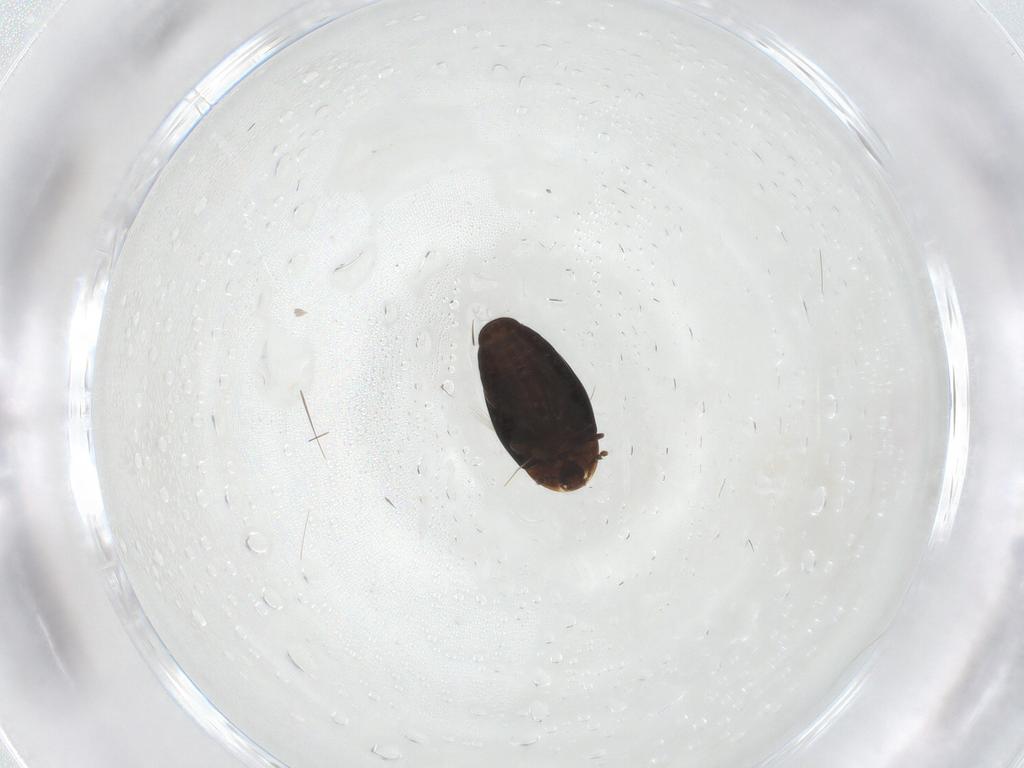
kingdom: Animalia
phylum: Arthropoda
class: Insecta
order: Coleoptera
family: Corylophidae
